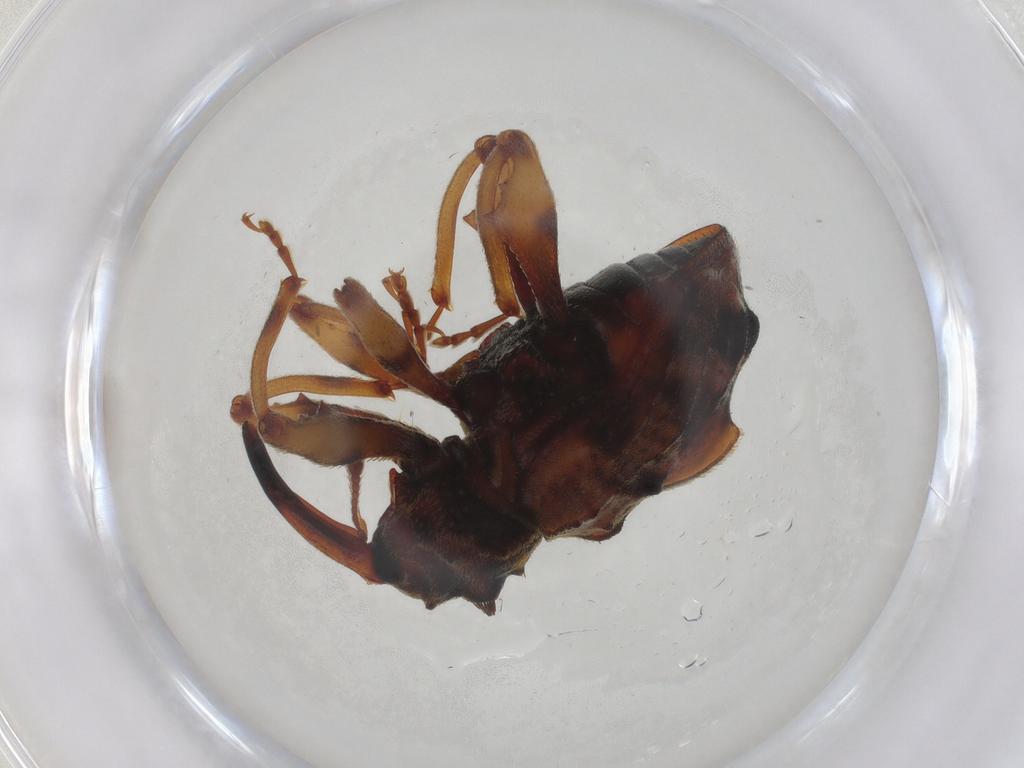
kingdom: Animalia
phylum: Arthropoda
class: Insecta
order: Coleoptera
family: Ptilodactylidae
